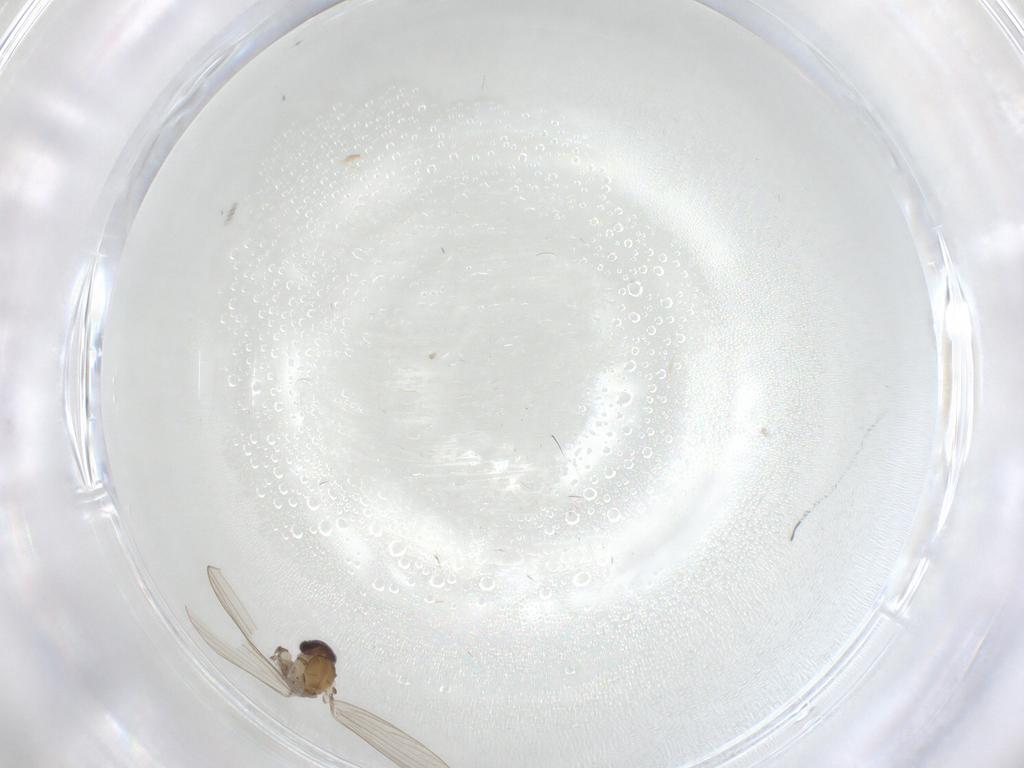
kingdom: Animalia
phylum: Arthropoda
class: Insecta
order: Diptera
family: Psychodidae
